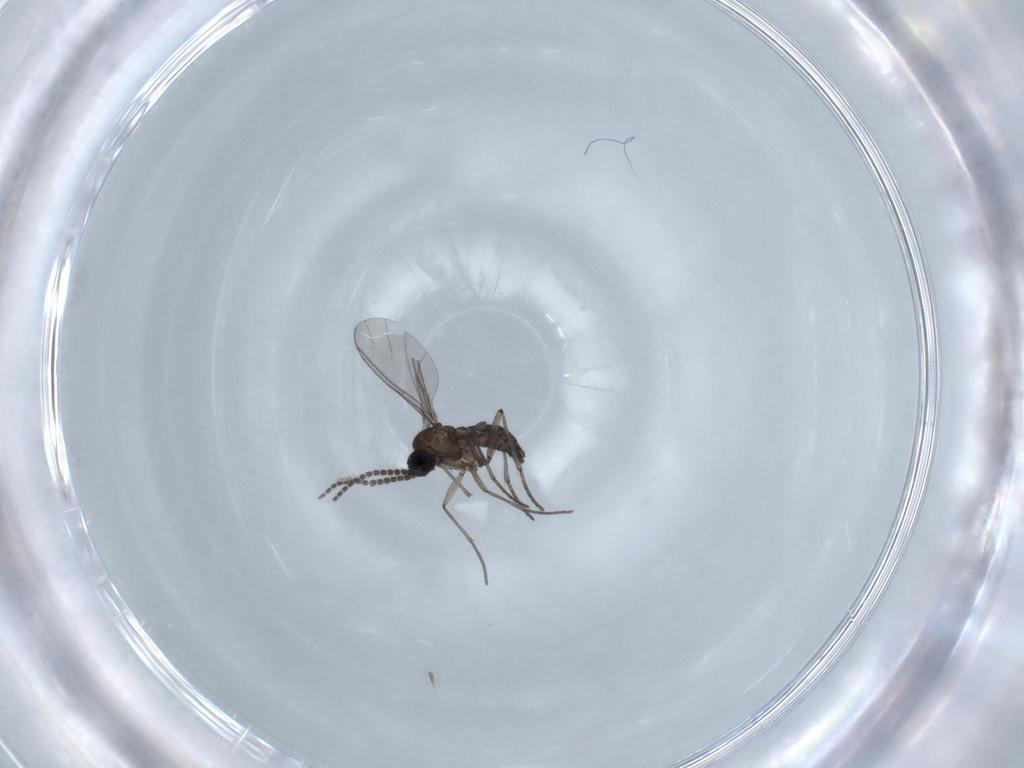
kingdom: Animalia
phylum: Arthropoda
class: Insecta
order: Diptera
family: Sciaridae
